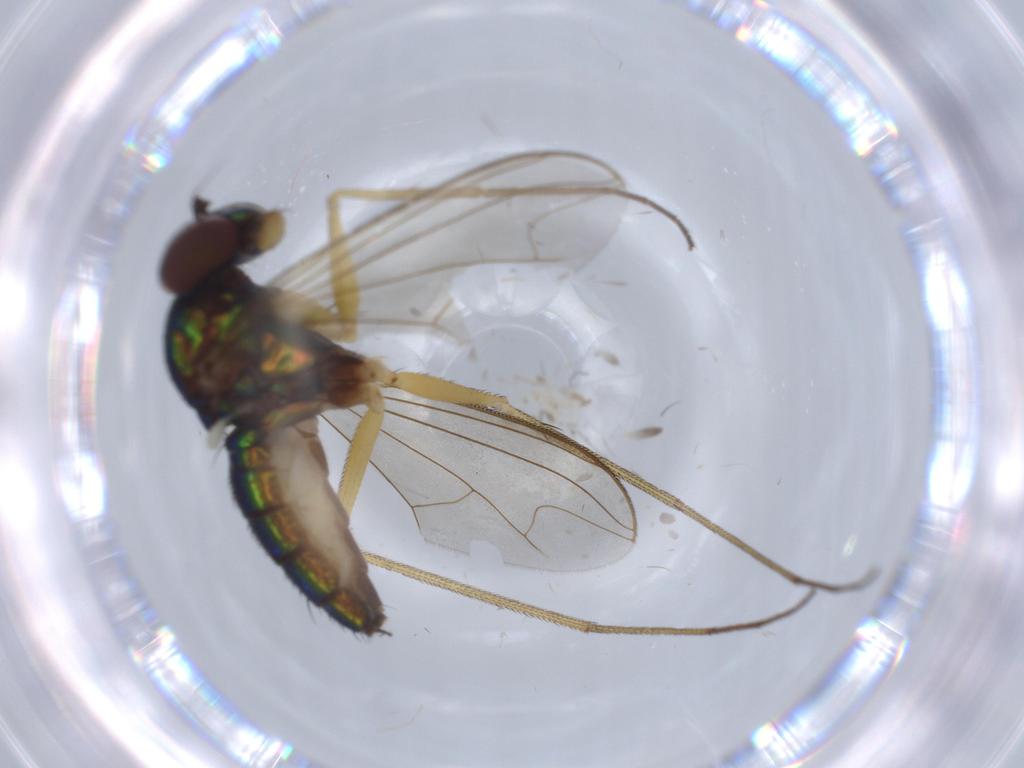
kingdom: Animalia
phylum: Arthropoda
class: Insecta
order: Diptera
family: Dolichopodidae
